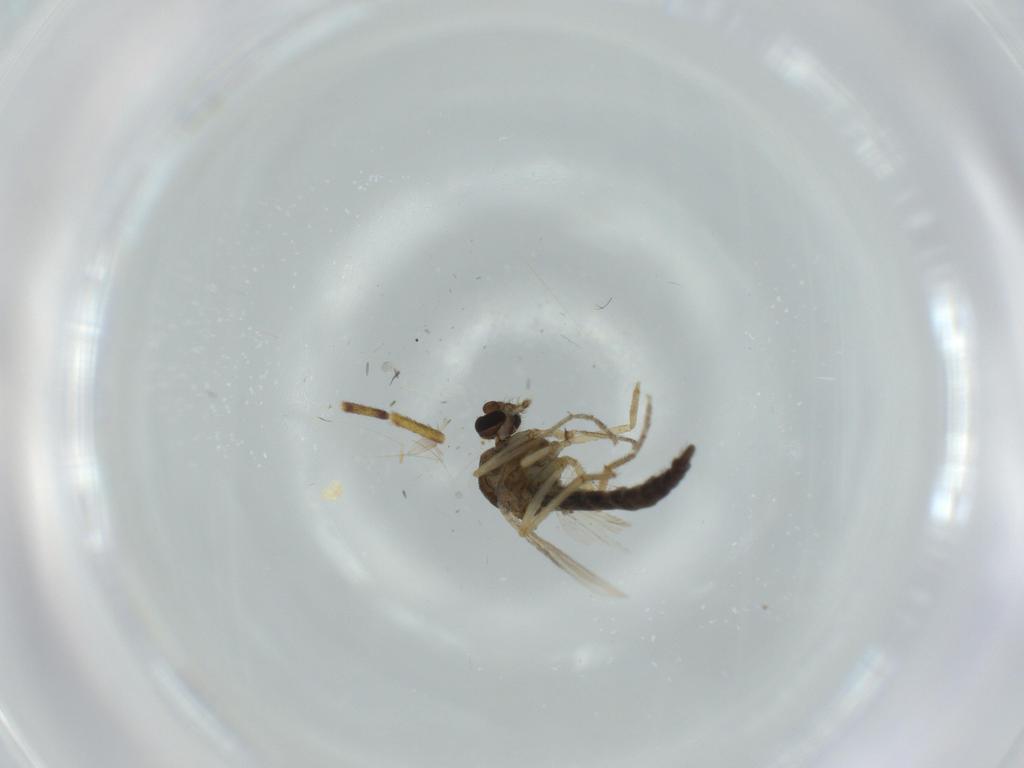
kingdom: Animalia
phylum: Arthropoda
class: Insecta
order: Diptera
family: Ceratopogonidae
